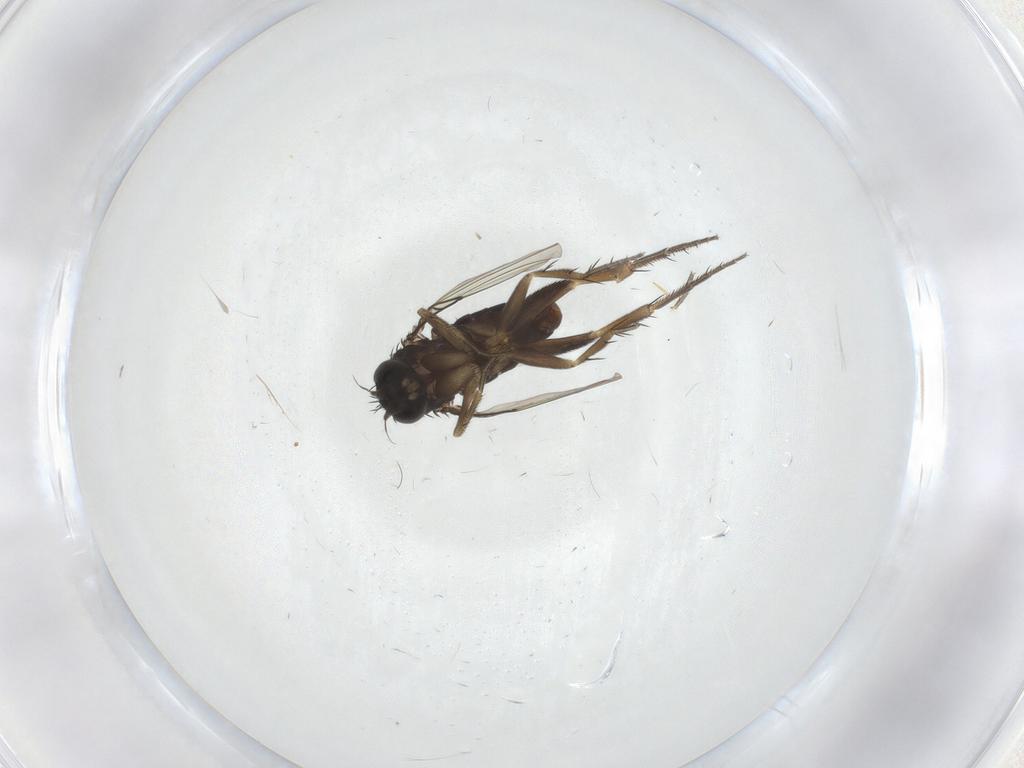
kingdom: Animalia
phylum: Arthropoda
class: Insecta
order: Diptera
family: Phoridae
